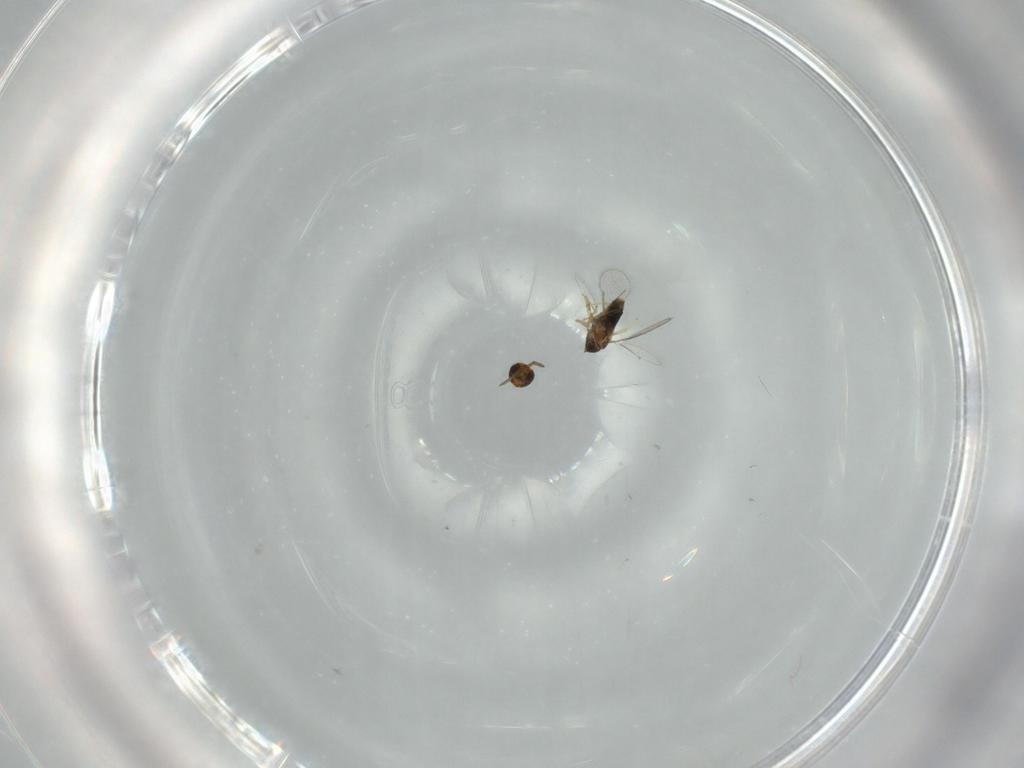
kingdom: Animalia
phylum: Arthropoda
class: Insecta
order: Hymenoptera
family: Aphelinidae
